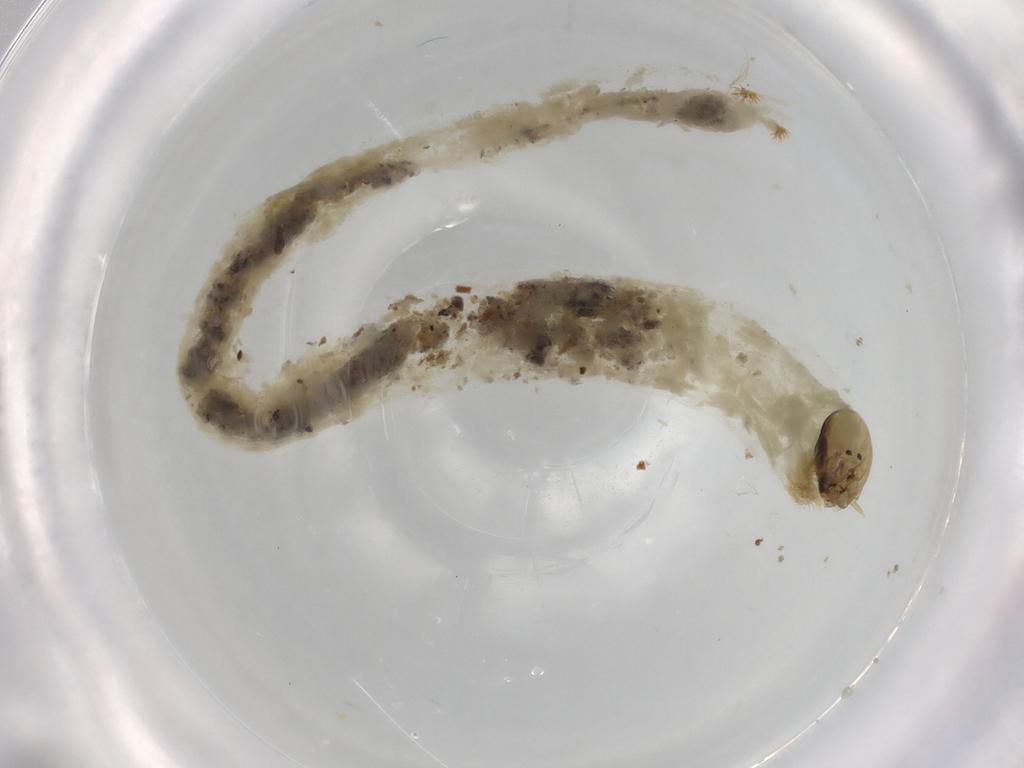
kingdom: Animalia
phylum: Arthropoda
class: Insecta
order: Diptera
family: Chironomidae
